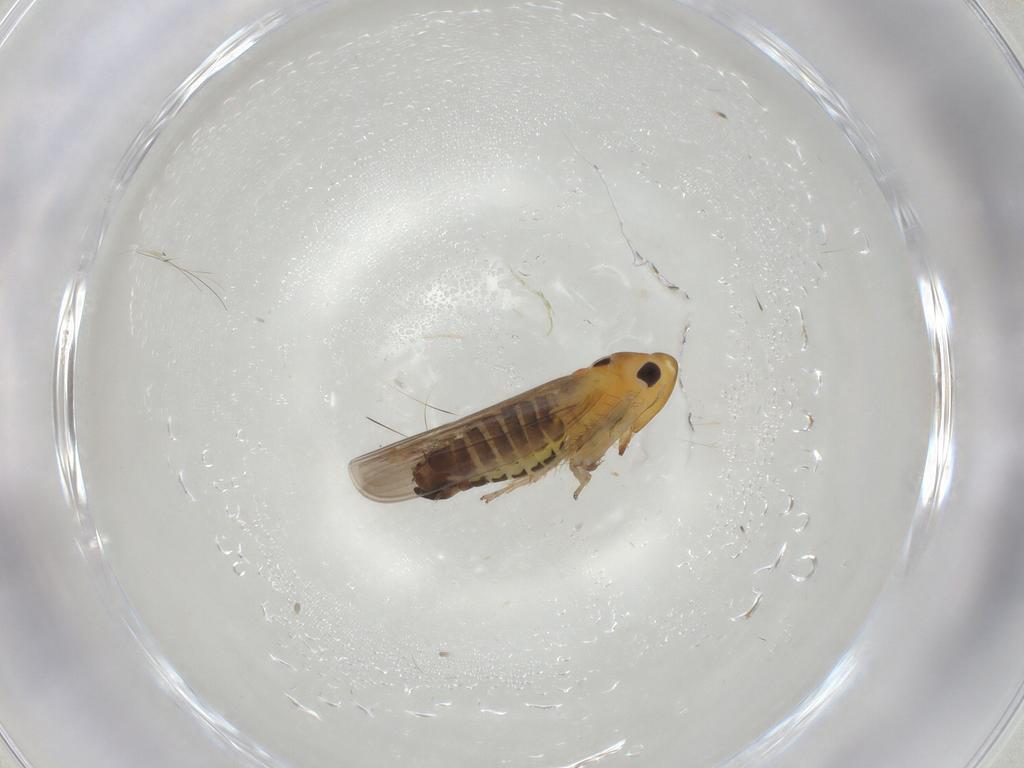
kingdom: Animalia
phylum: Arthropoda
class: Insecta
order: Hemiptera
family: Cicadellidae
